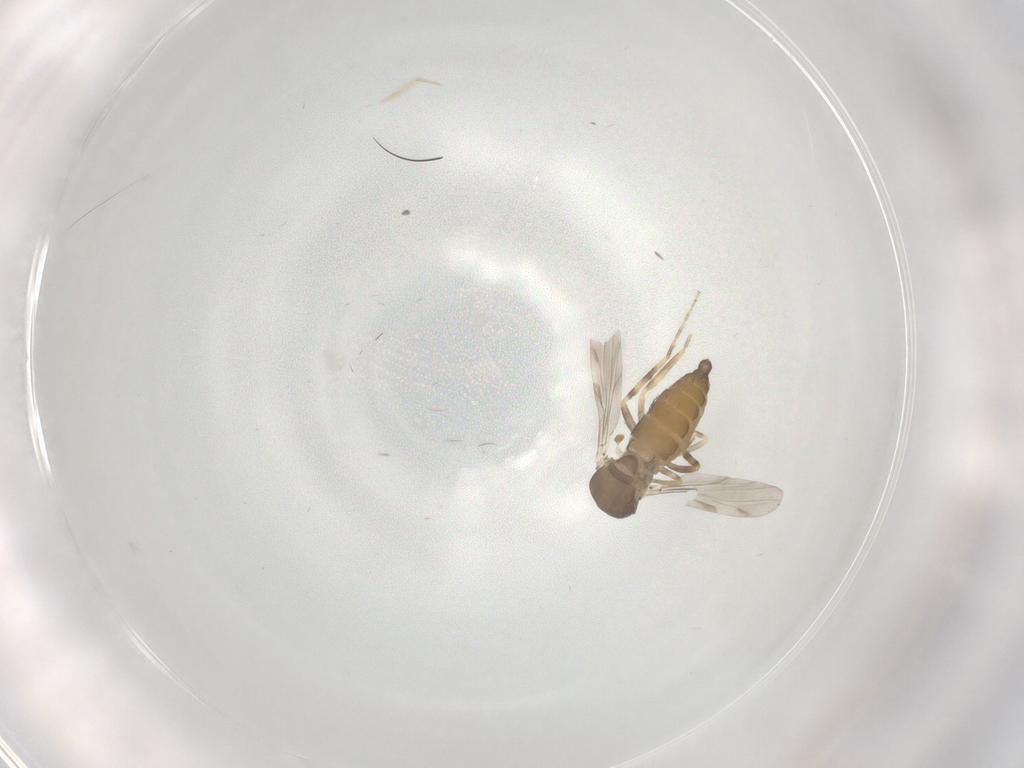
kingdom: Animalia
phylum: Arthropoda
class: Insecta
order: Diptera
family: Ceratopogonidae
